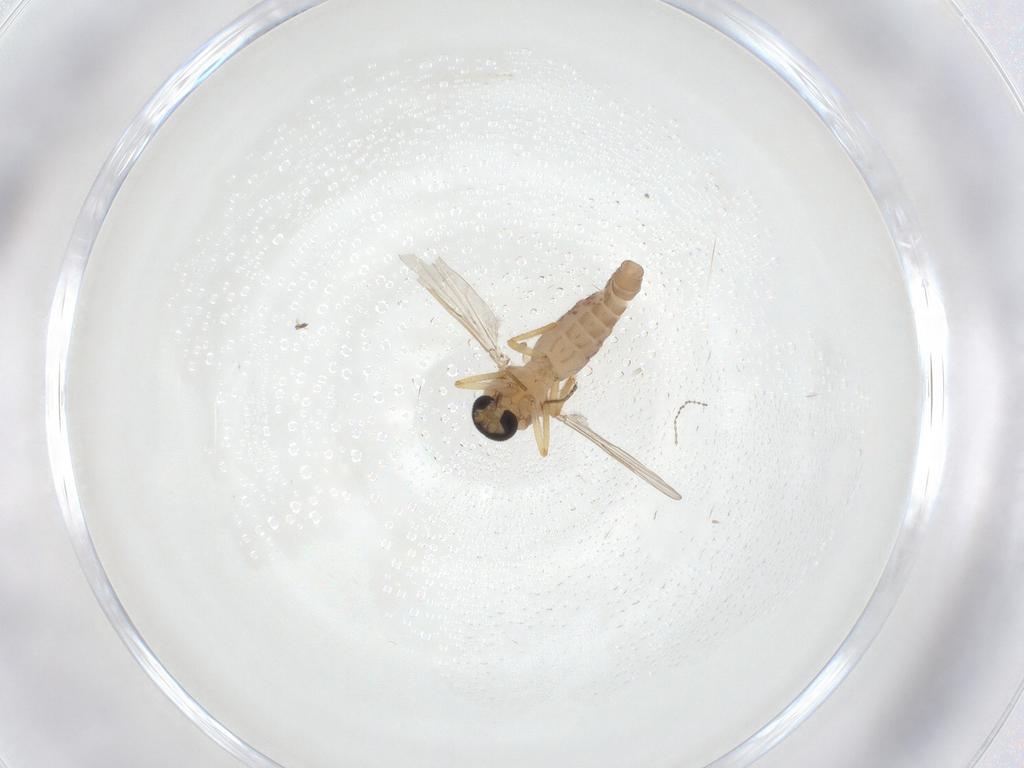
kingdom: Animalia
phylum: Arthropoda
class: Insecta
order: Diptera
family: Ceratopogonidae
